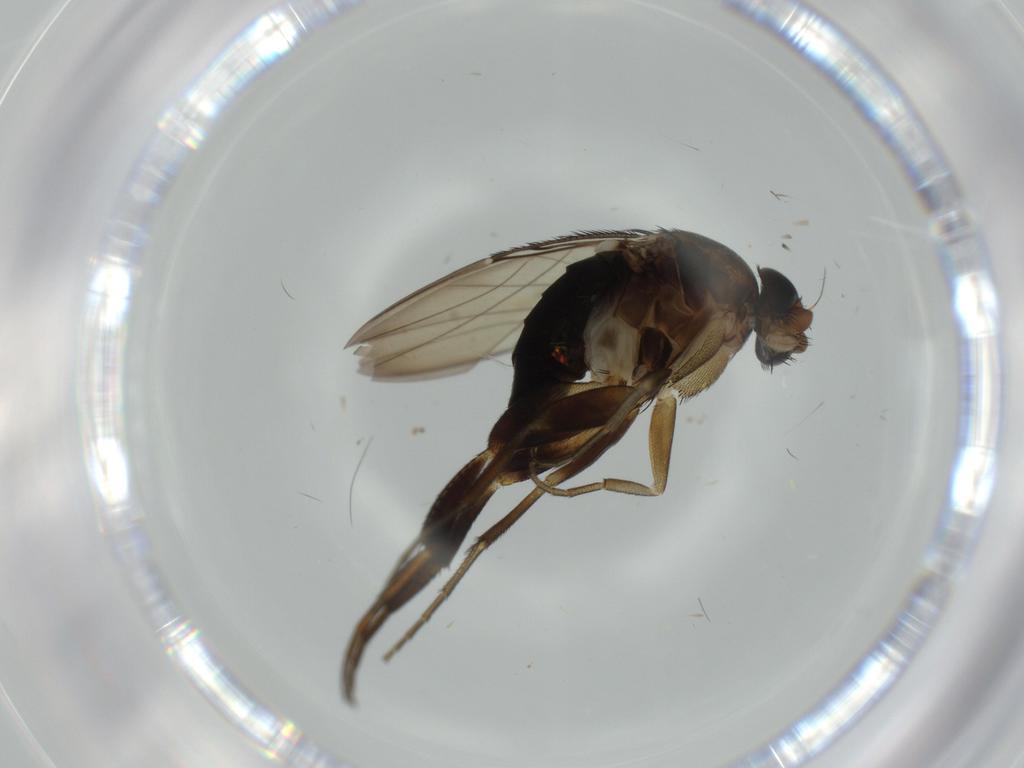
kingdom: Animalia
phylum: Arthropoda
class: Insecta
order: Diptera
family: Phoridae
